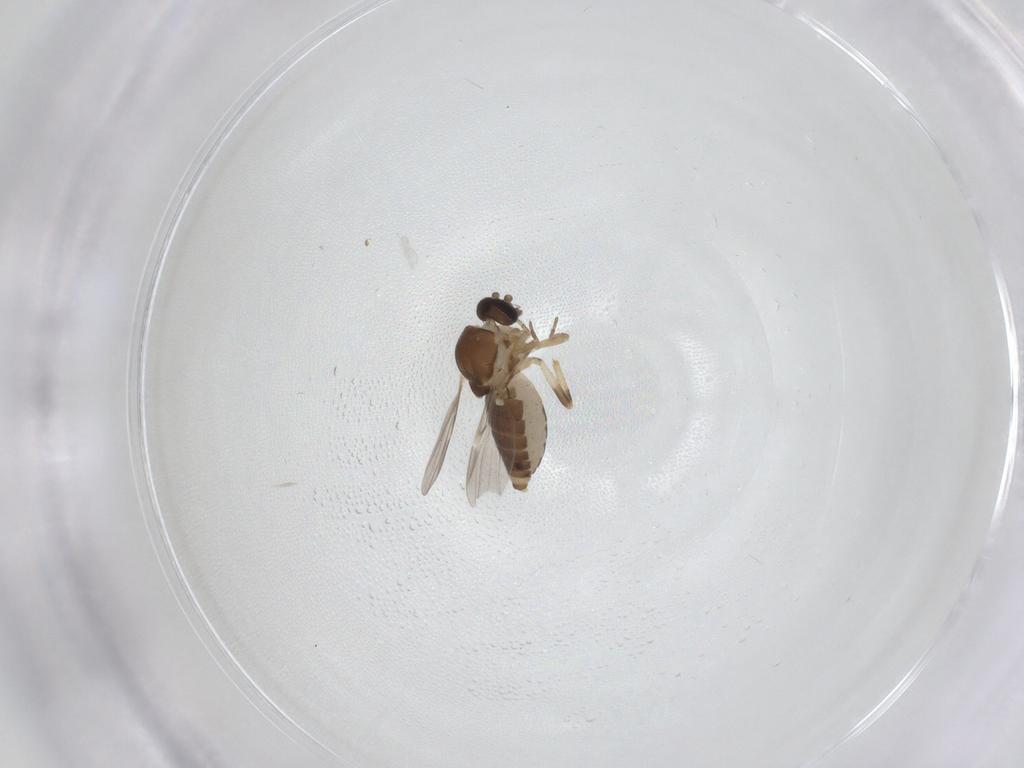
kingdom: Animalia
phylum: Arthropoda
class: Insecta
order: Diptera
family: Ceratopogonidae
